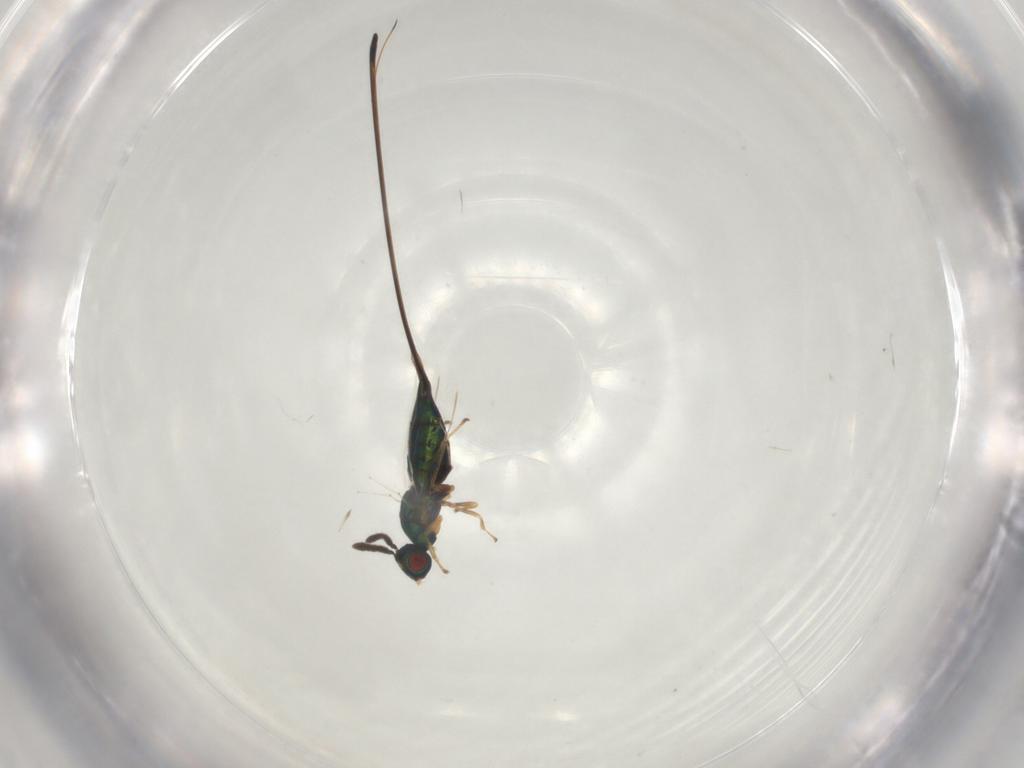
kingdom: Animalia
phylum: Arthropoda
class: Insecta
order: Hymenoptera
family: Pteromalidae
